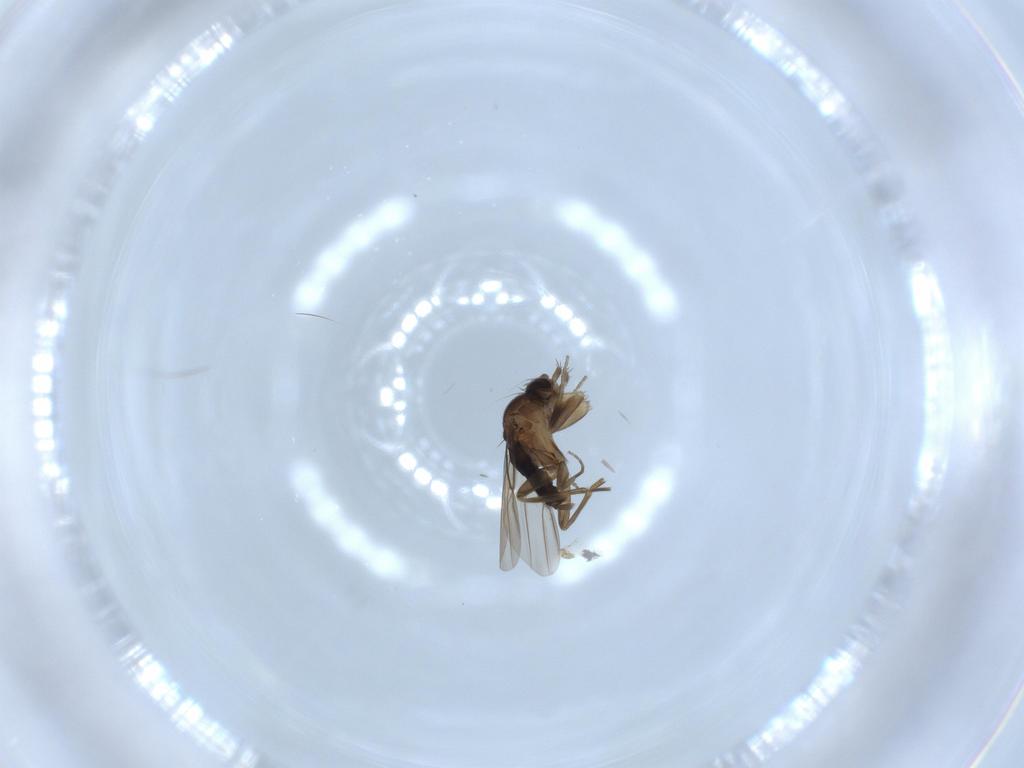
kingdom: Animalia
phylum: Arthropoda
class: Insecta
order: Diptera
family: Phoridae
